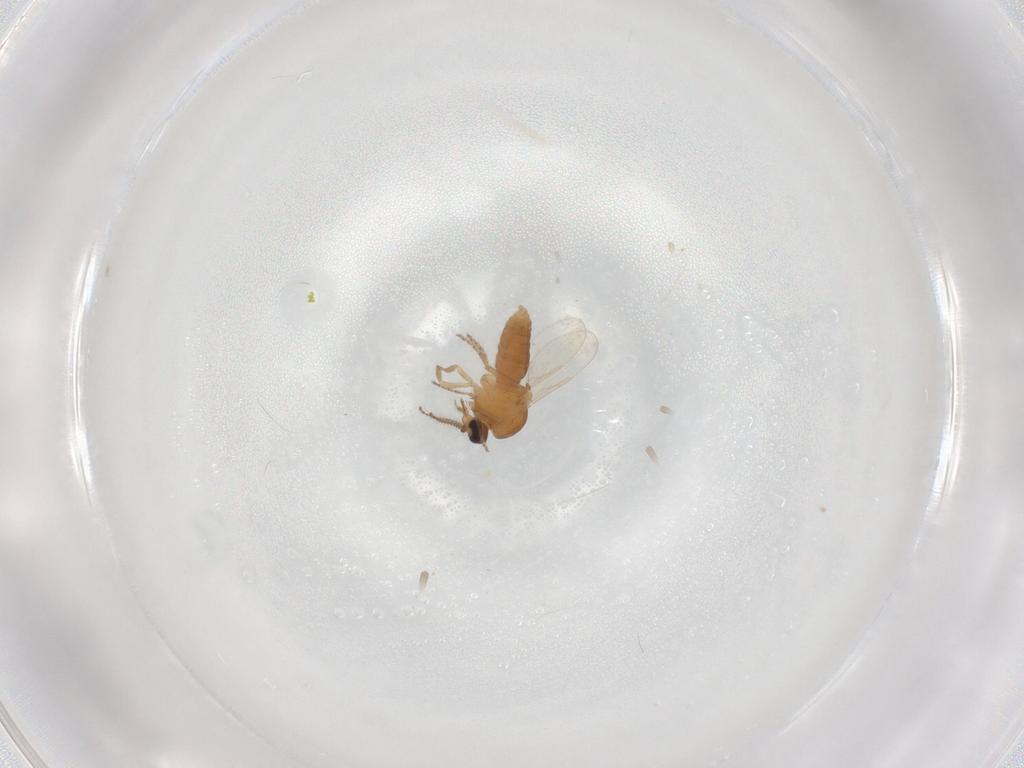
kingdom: Animalia
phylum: Arthropoda
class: Insecta
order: Diptera
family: Ceratopogonidae
